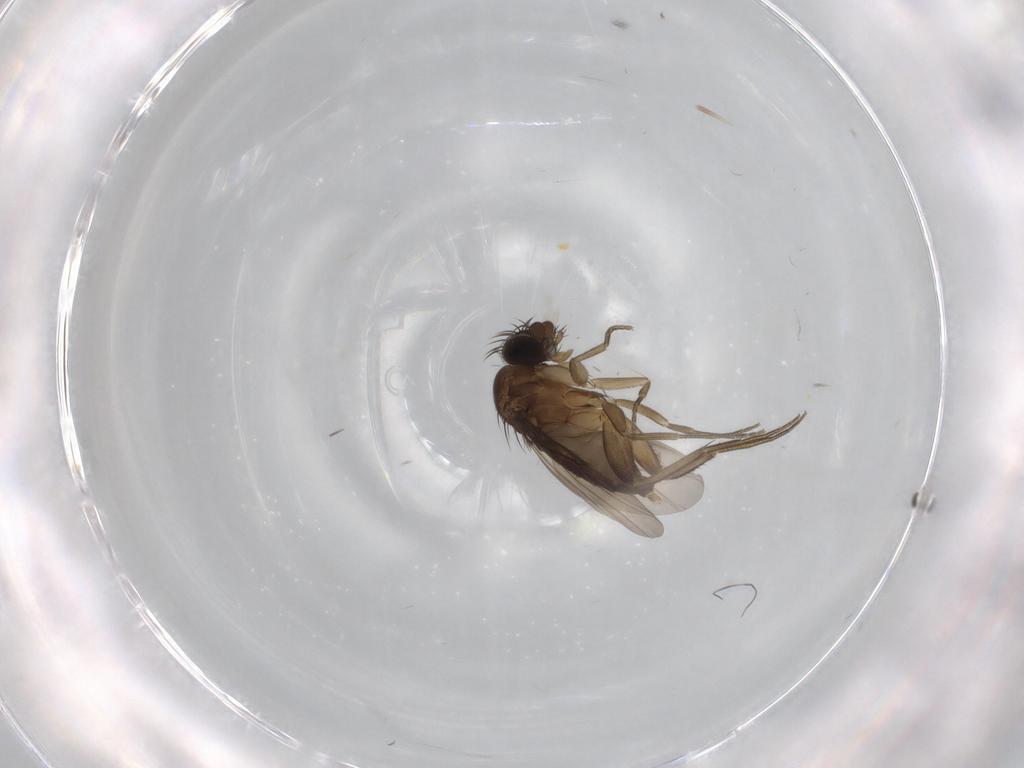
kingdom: Animalia
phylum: Arthropoda
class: Insecta
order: Diptera
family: Phoridae
